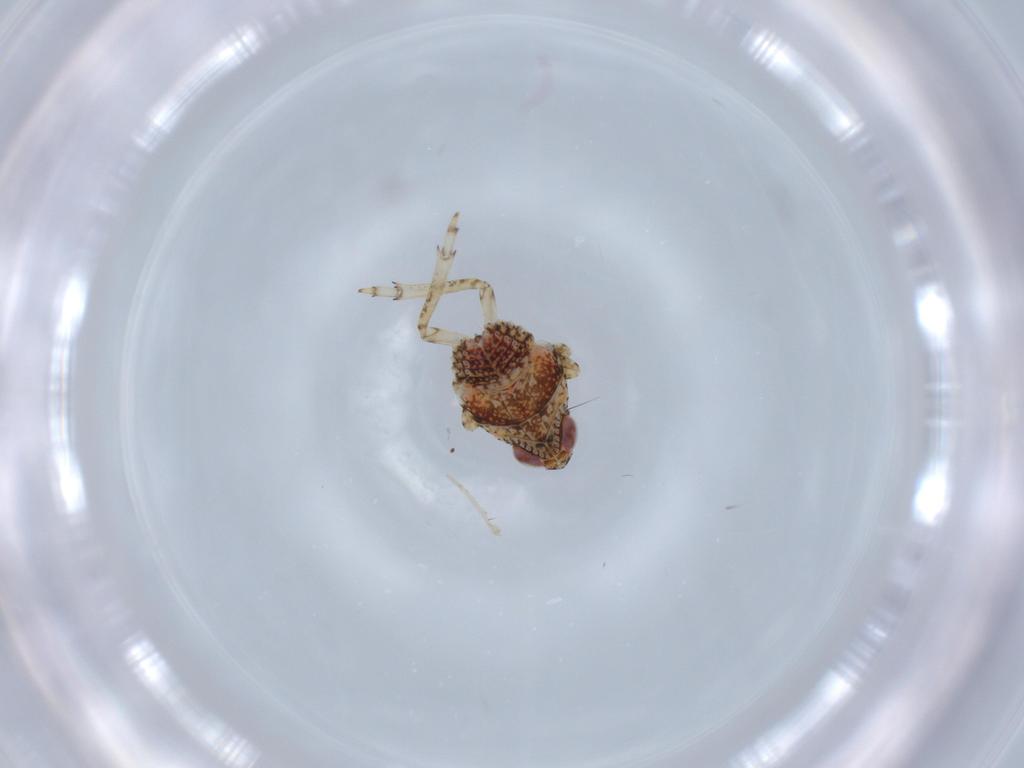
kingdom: Animalia
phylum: Arthropoda
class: Insecta
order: Hemiptera
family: Issidae
